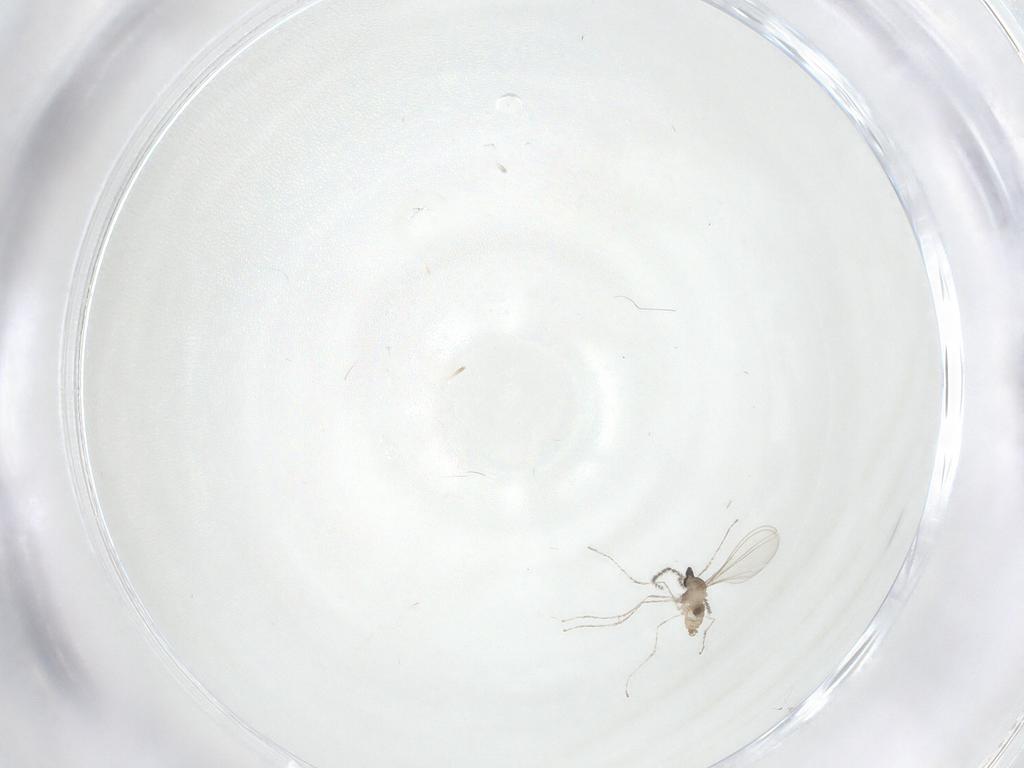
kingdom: Animalia
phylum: Arthropoda
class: Insecta
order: Diptera
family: Cecidomyiidae
